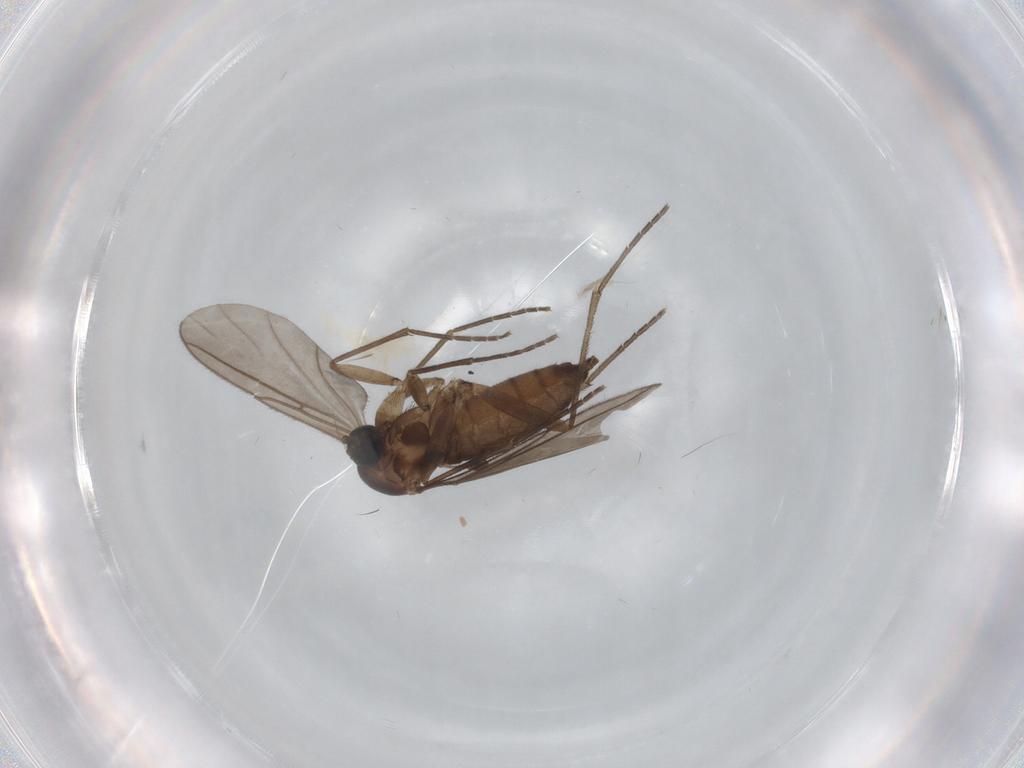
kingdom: Animalia
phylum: Arthropoda
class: Insecta
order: Diptera
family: Sciaridae
